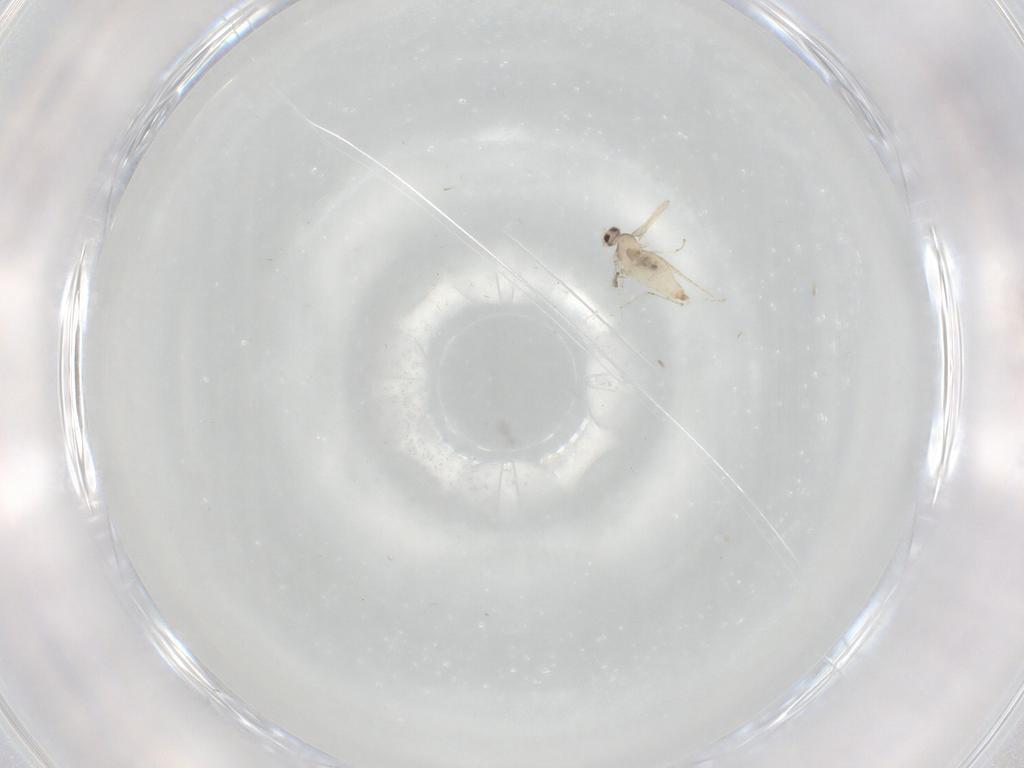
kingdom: Animalia
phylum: Arthropoda
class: Insecta
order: Diptera
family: Cecidomyiidae
